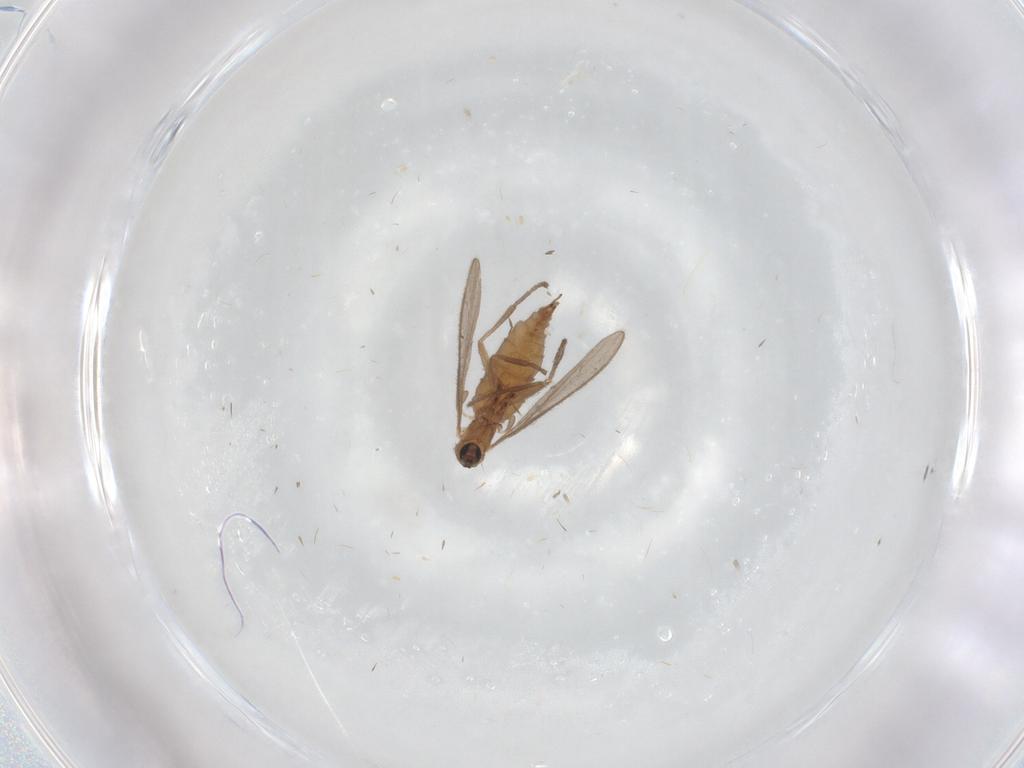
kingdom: Animalia
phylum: Arthropoda
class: Insecta
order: Diptera
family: Sciaridae
